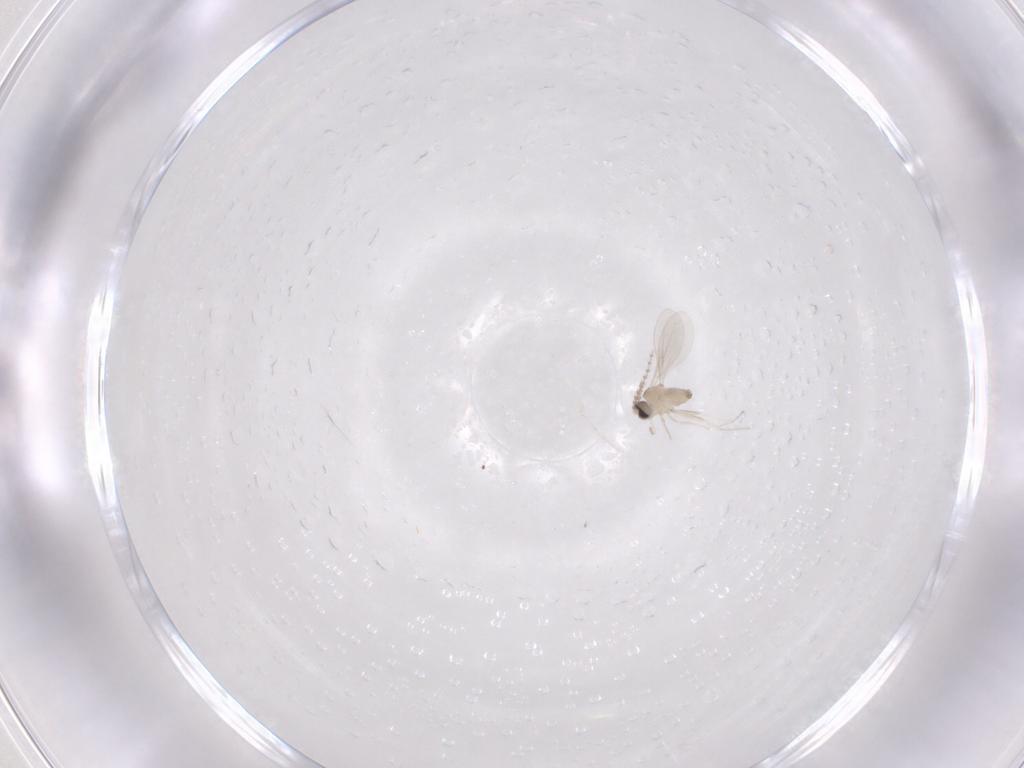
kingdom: Animalia
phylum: Arthropoda
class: Insecta
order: Diptera
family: Cecidomyiidae
